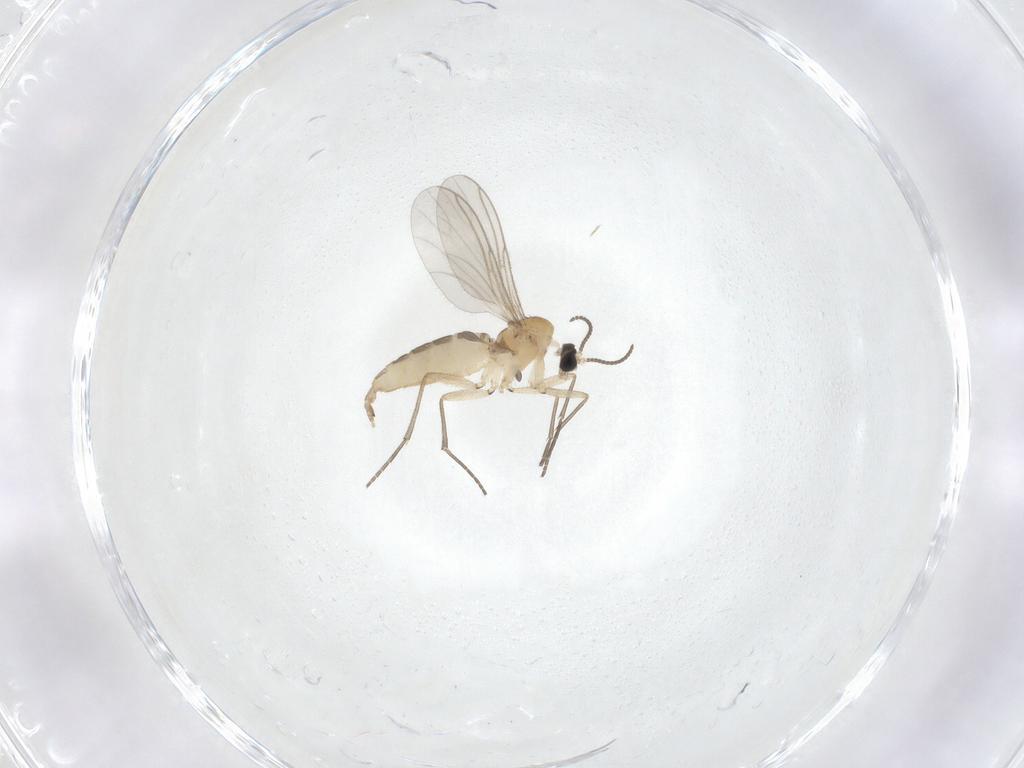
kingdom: Animalia
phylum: Arthropoda
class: Insecta
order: Diptera
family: Sciaridae
